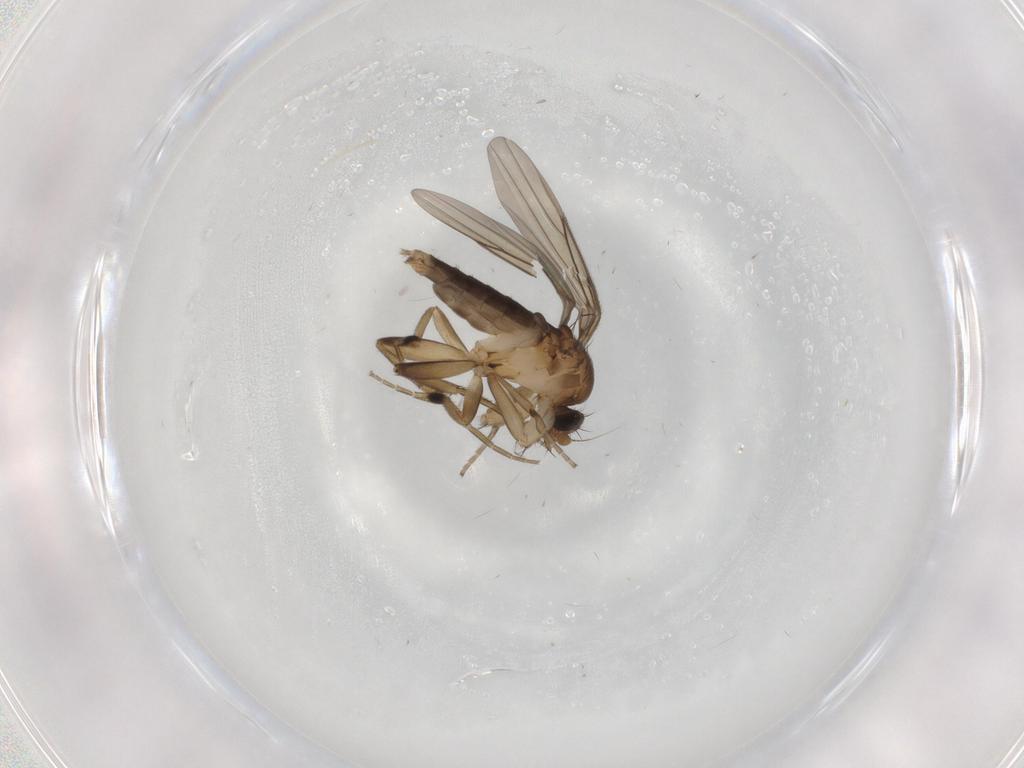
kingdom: Animalia
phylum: Arthropoda
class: Insecta
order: Diptera
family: Phoridae
